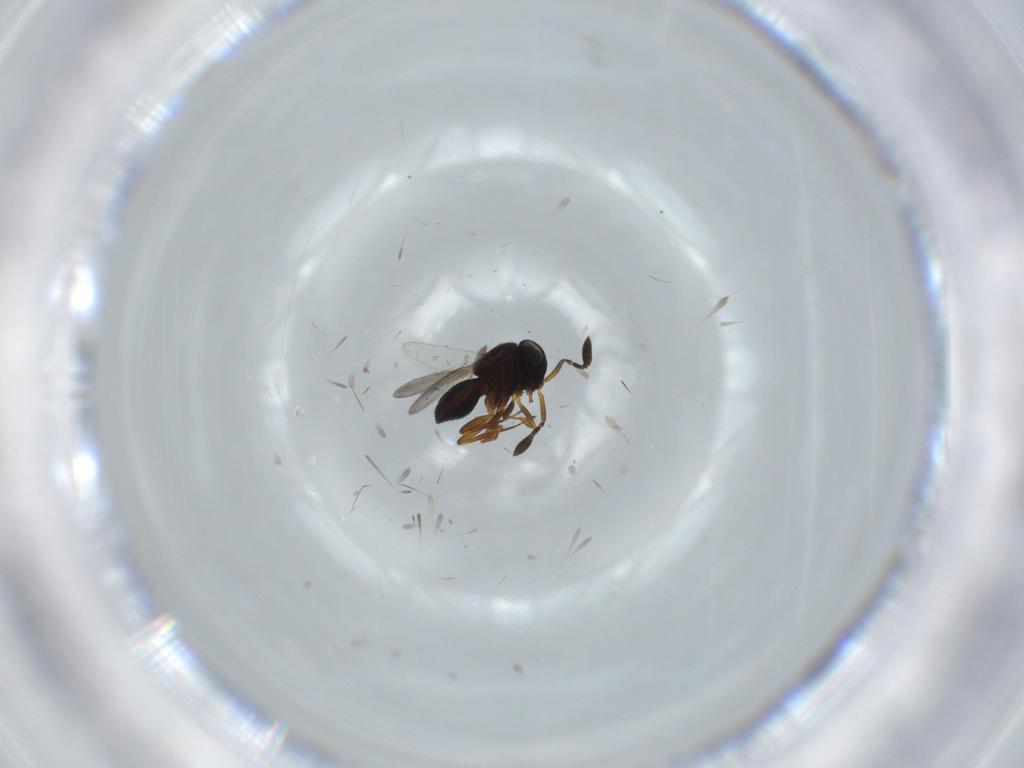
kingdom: Animalia
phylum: Arthropoda
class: Insecta
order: Hymenoptera
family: Scelionidae
